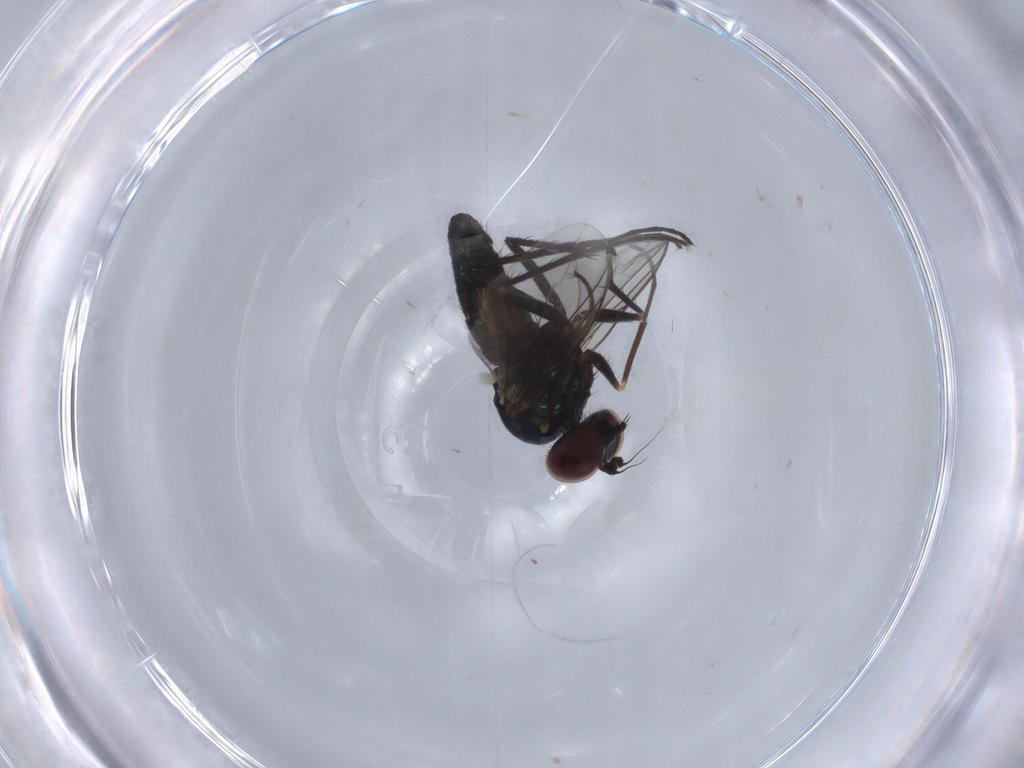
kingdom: Animalia
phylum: Arthropoda
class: Insecta
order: Diptera
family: Dolichopodidae
